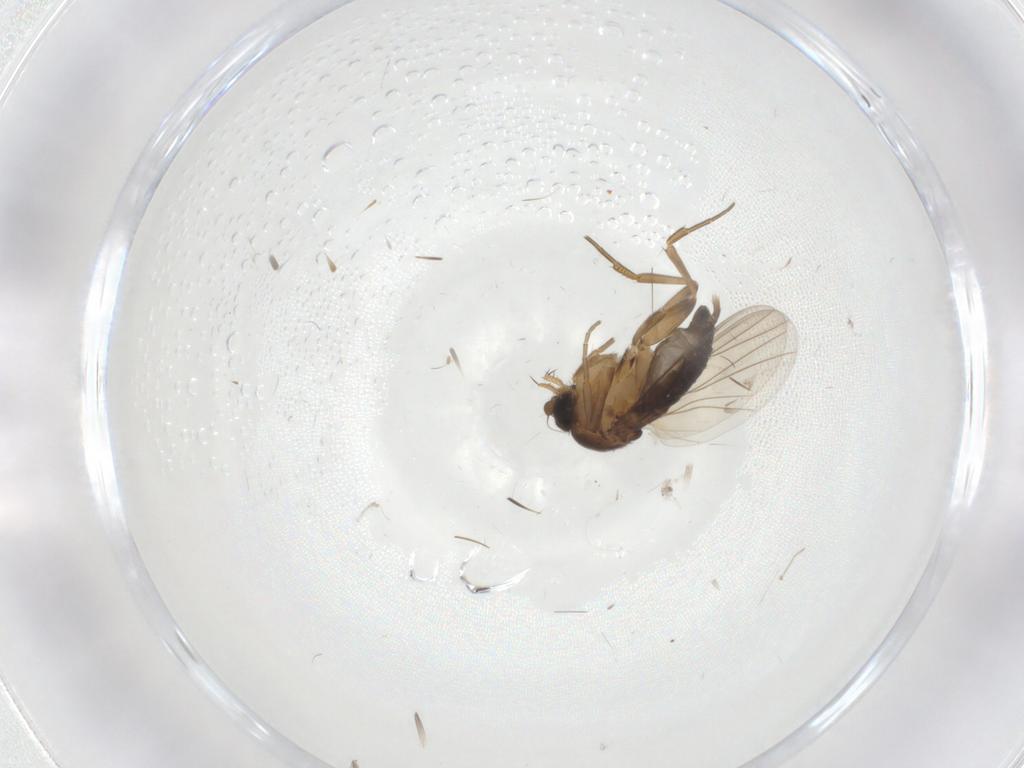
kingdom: Animalia
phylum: Arthropoda
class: Insecta
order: Diptera
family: Phoridae
